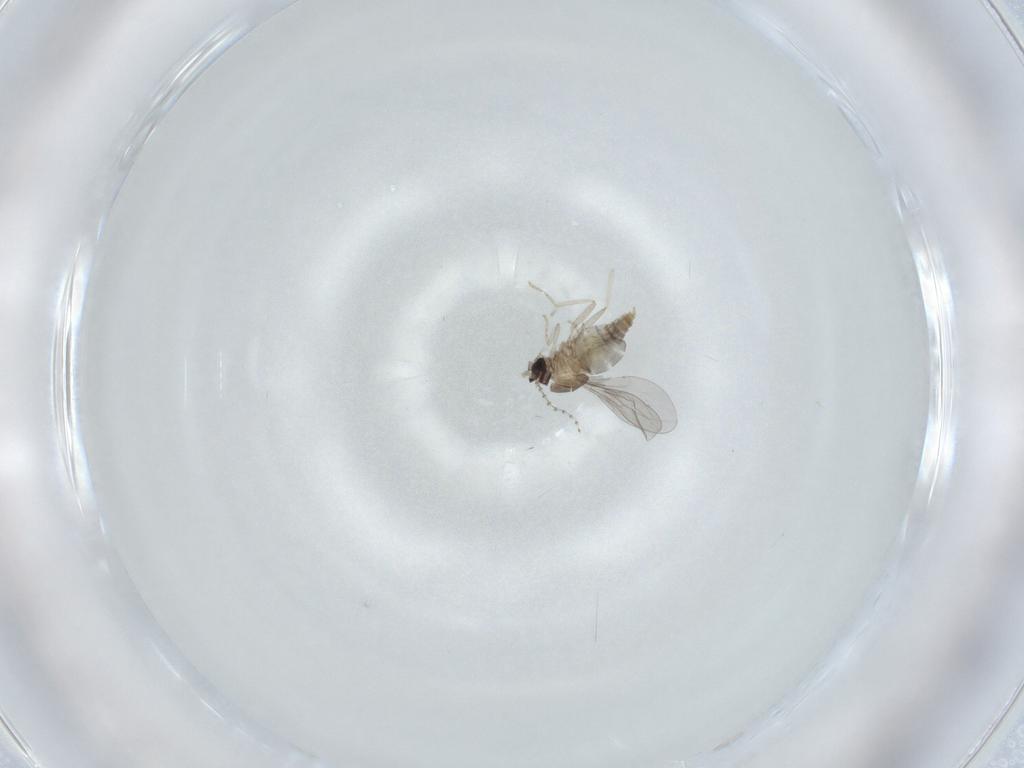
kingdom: Animalia
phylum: Arthropoda
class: Insecta
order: Diptera
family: Cecidomyiidae
